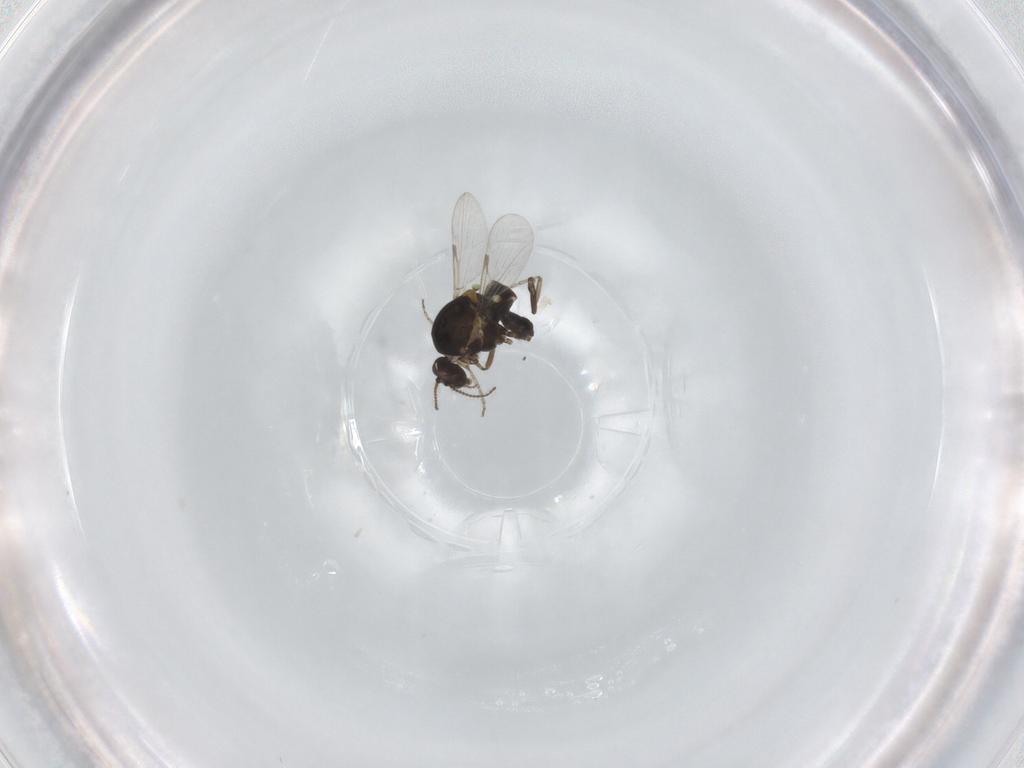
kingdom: Animalia
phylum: Arthropoda
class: Insecta
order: Diptera
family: Ceratopogonidae
